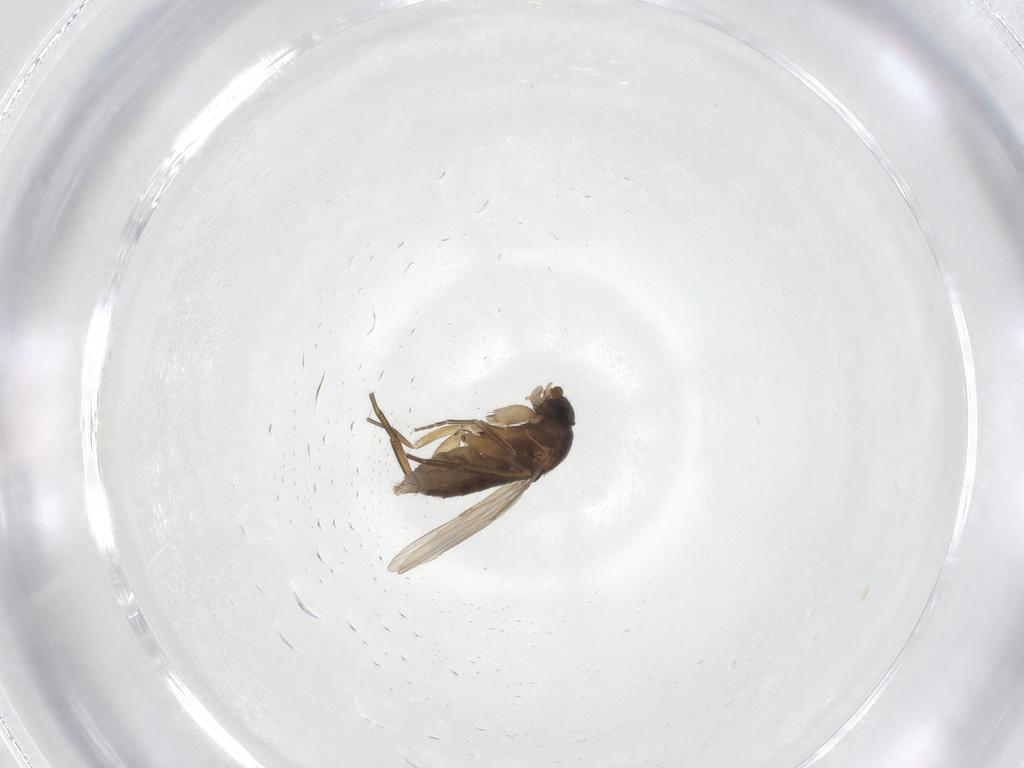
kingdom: Animalia
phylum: Arthropoda
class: Insecta
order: Diptera
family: Phoridae
